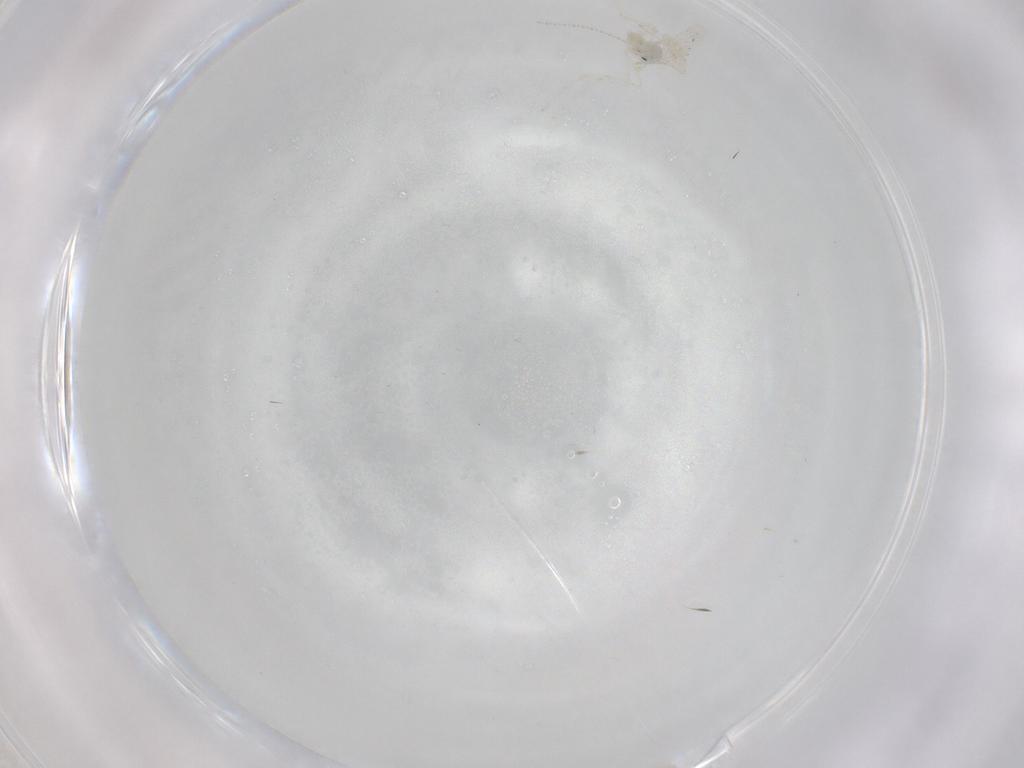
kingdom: Animalia
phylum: Arthropoda
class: Insecta
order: Diptera
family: Cecidomyiidae
